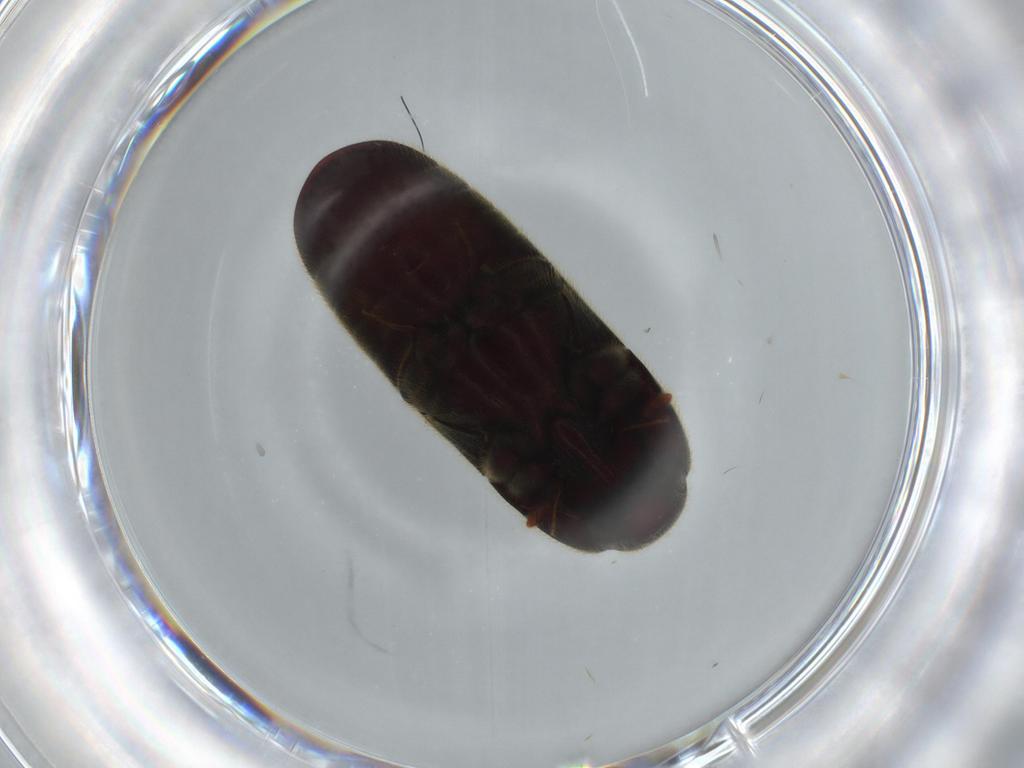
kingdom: Animalia
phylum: Arthropoda
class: Insecta
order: Coleoptera
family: Throscidae
